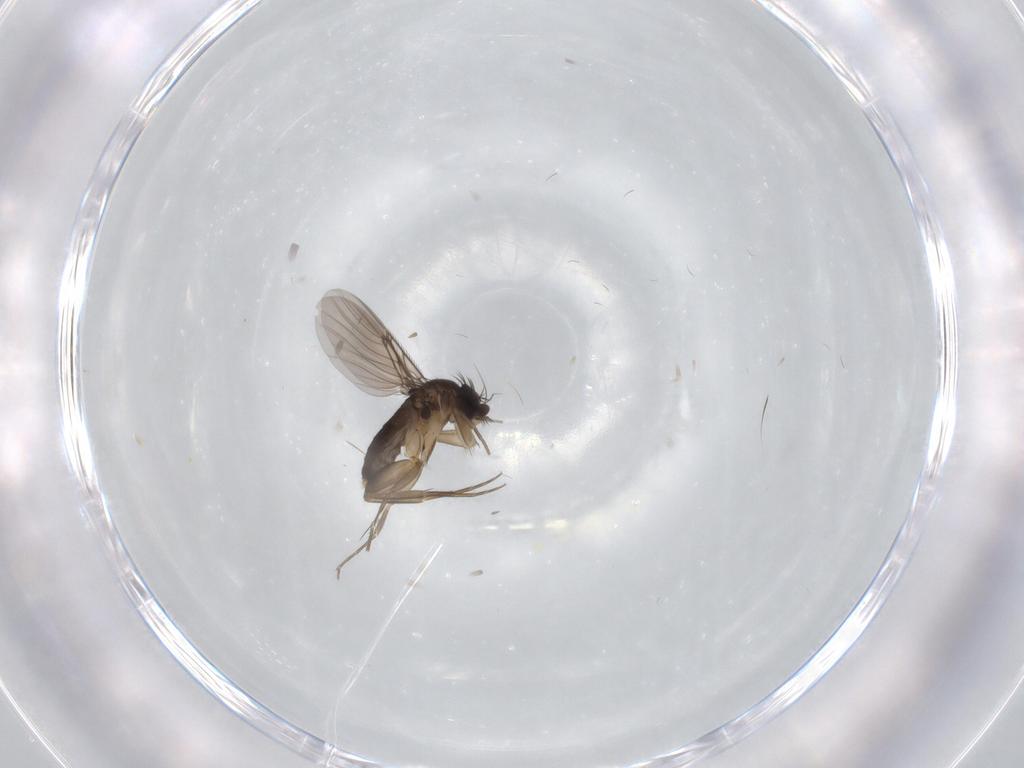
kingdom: Animalia
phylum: Arthropoda
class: Insecta
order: Diptera
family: Phoridae
